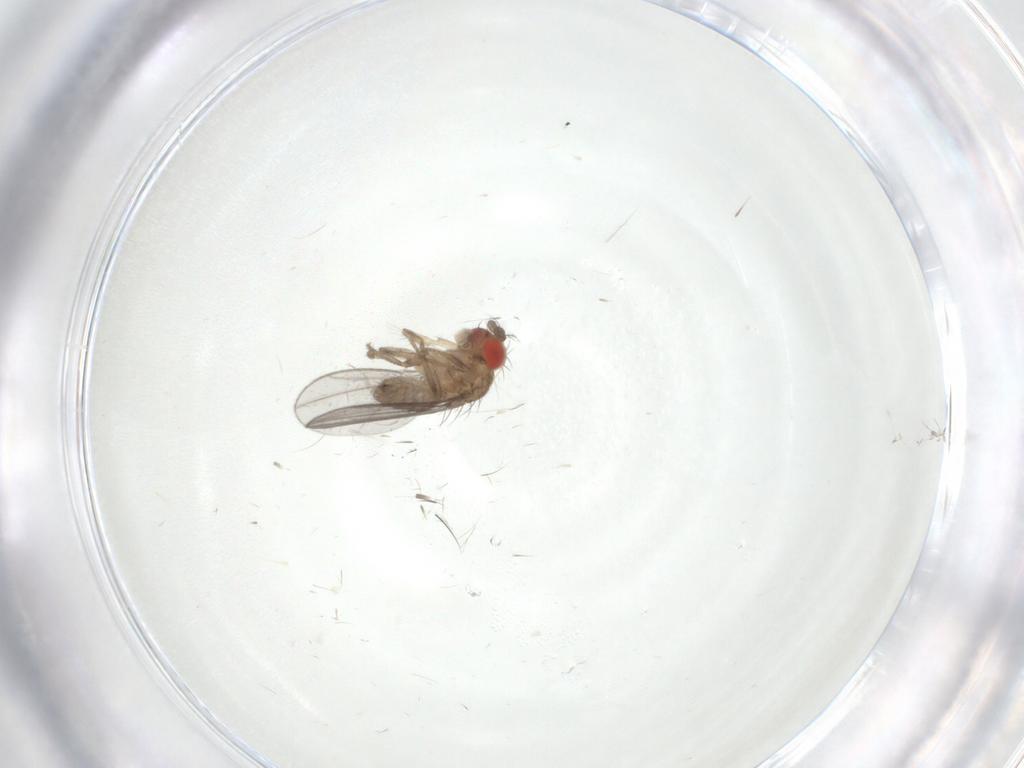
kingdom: Animalia
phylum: Arthropoda
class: Insecta
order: Diptera
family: Drosophilidae
